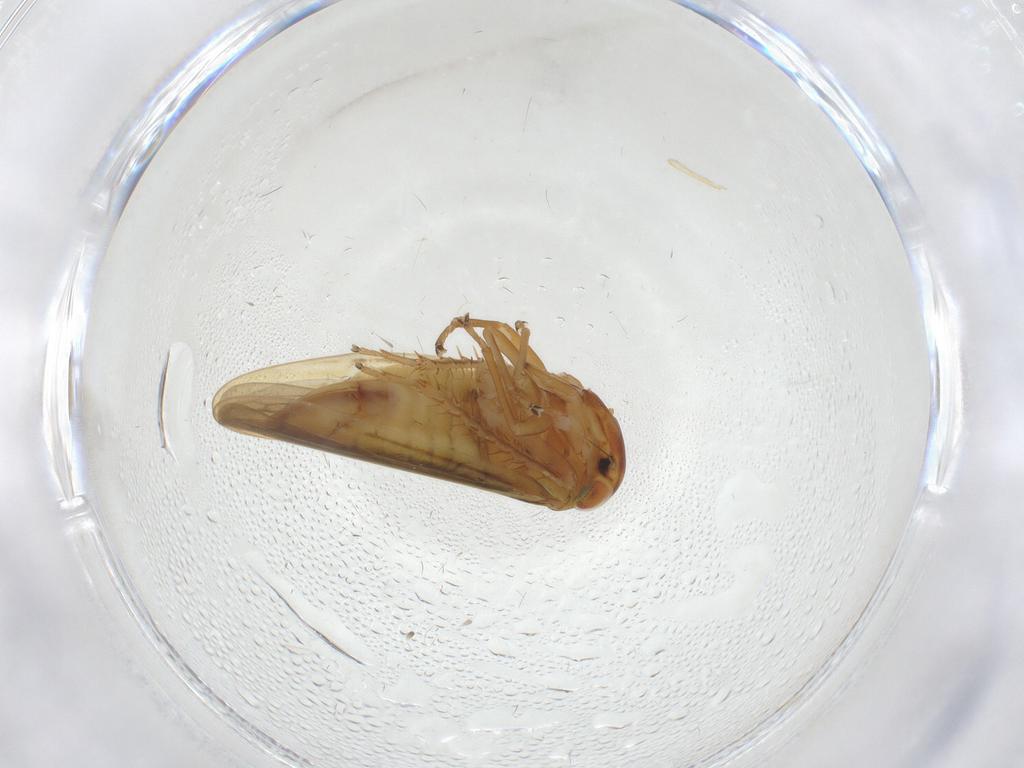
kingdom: Animalia
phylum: Arthropoda
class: Insecta
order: Hemiptera
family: Cicadellidae
